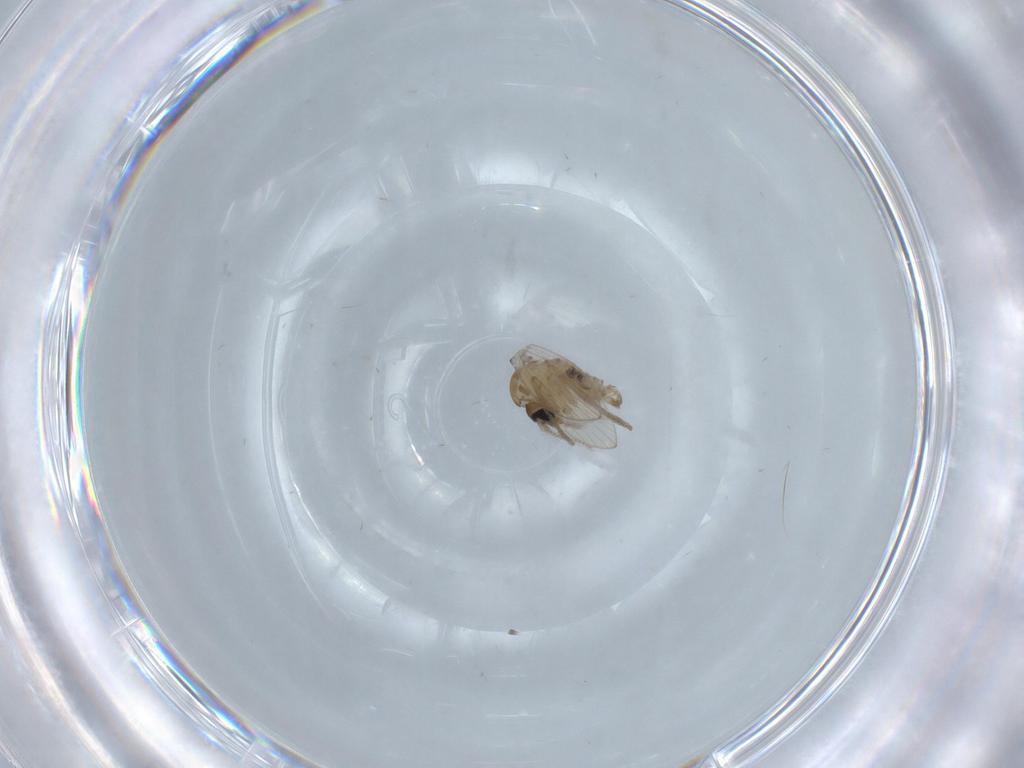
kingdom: Animalia
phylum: Arthropoda
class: Insecta
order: Diptera
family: Psychodidae
